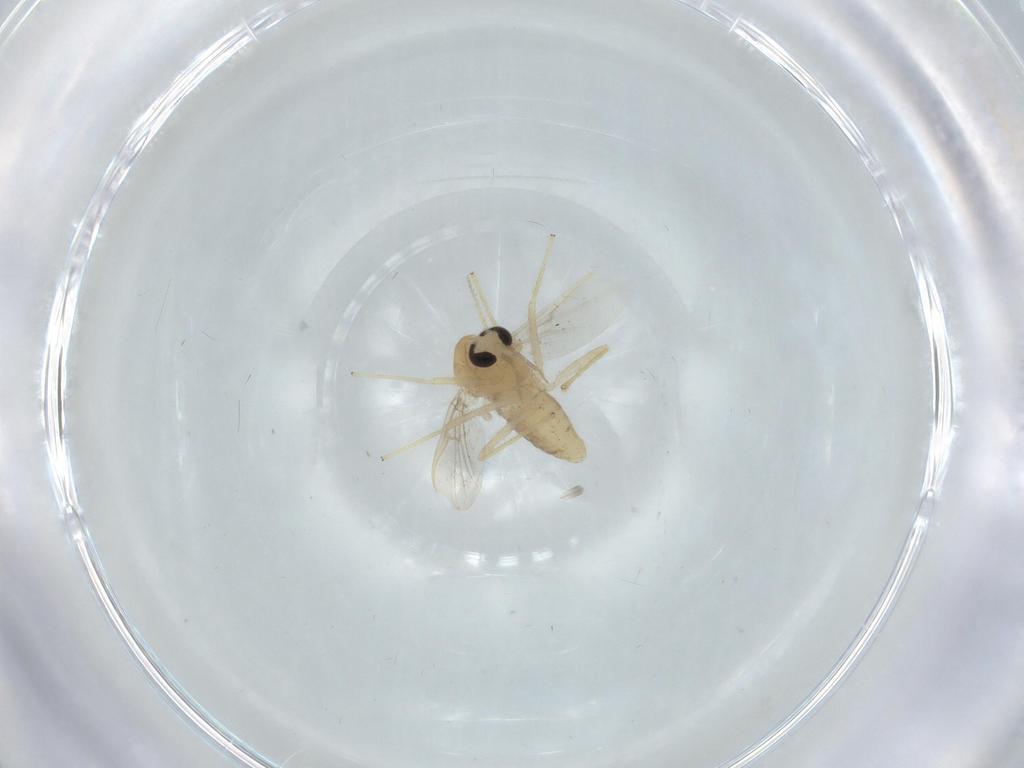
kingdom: Animalia
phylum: Arthropoda
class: Insecta
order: Diptera
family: Chironomidae
